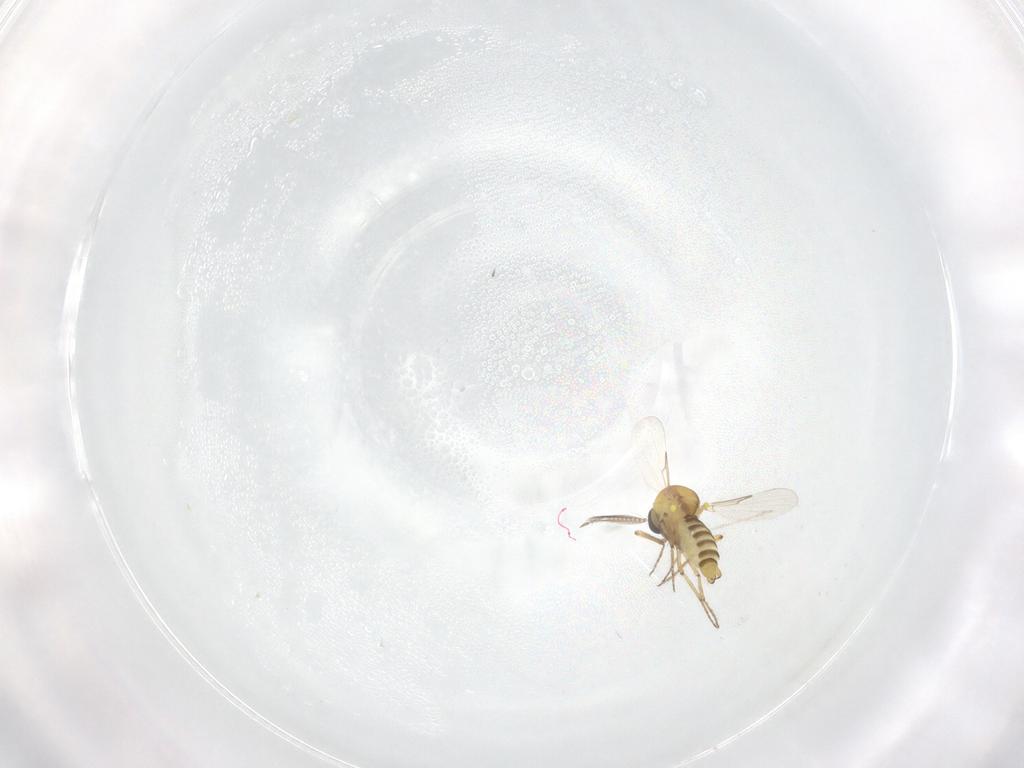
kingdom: Animalia
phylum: Arthropoda
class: Insecta
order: Diptera
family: Ceratopogonidae
